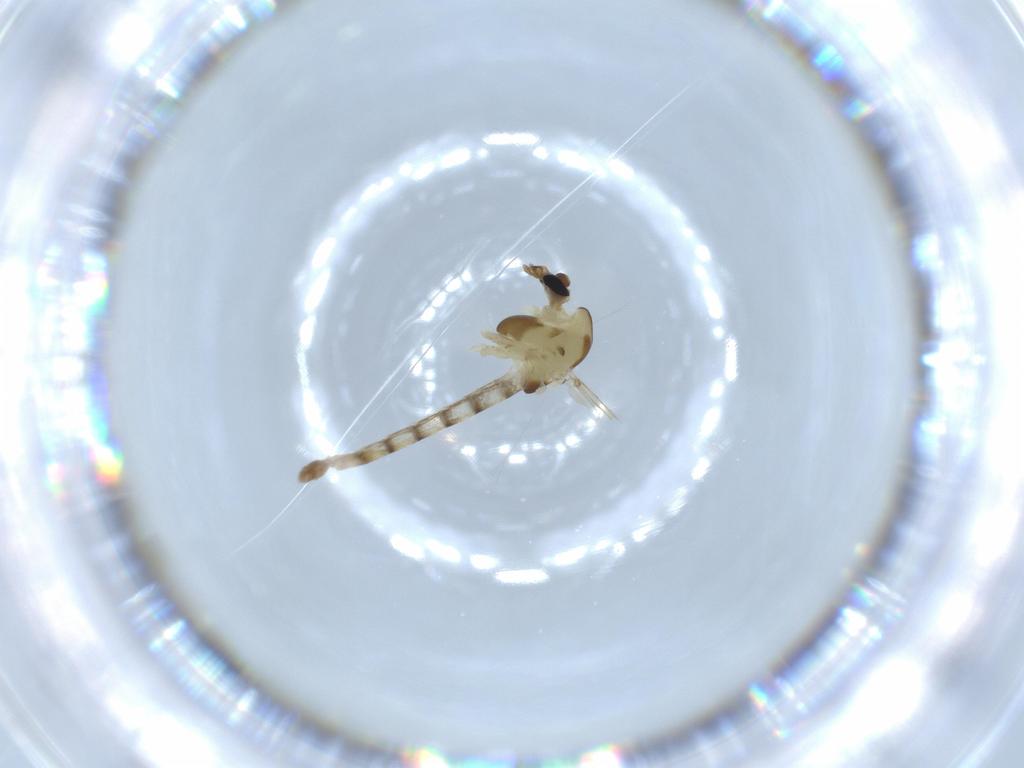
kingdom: Animalia
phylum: Arthropoda
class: Insecta
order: Diptera
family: Chironomidae
